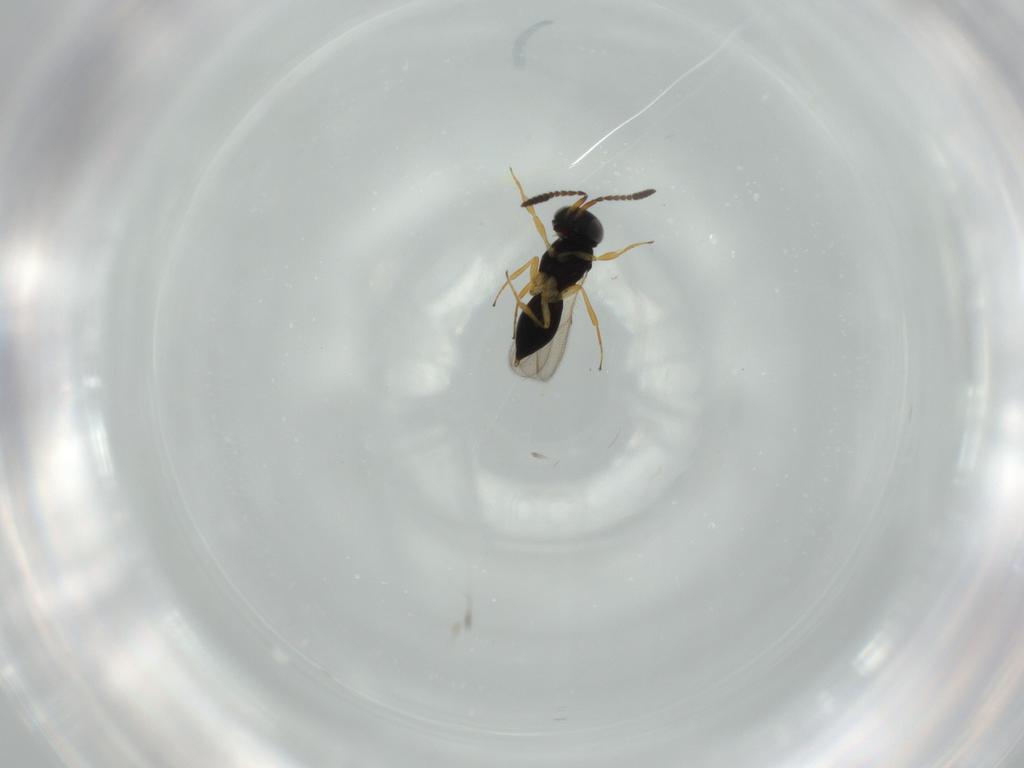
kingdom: Animalia
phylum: Arthropoda
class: Insecta
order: Hymenoptera
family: Scelionidae
